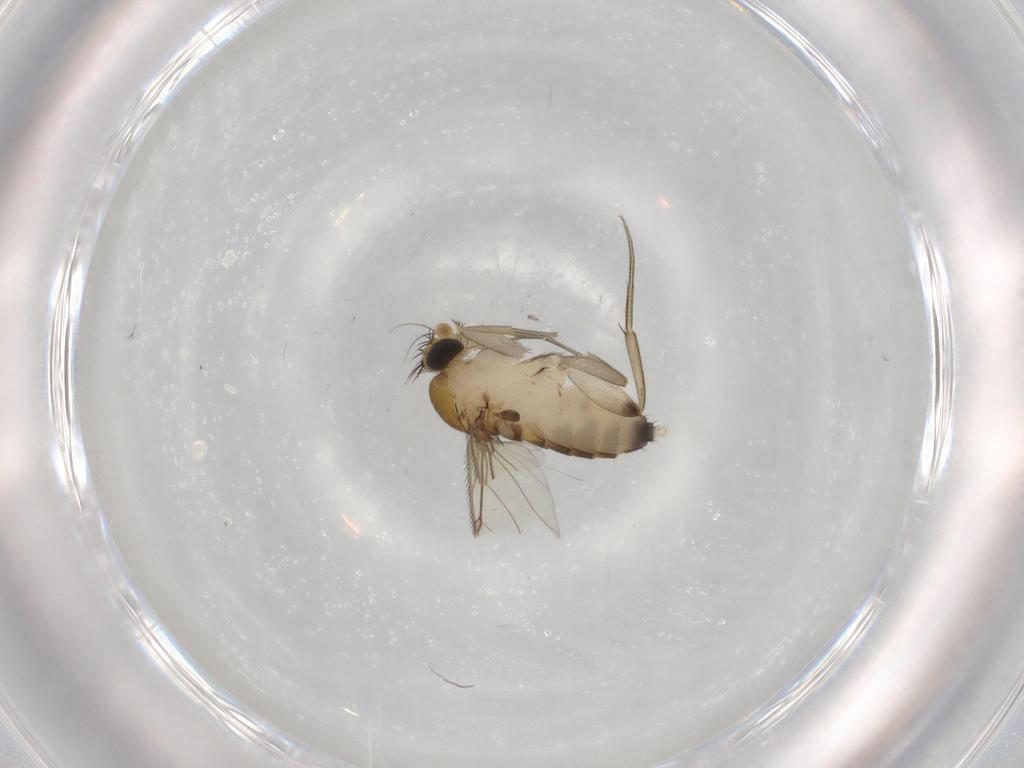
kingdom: Animalia
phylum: Arthropoda
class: Insecta
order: Diptera
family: Phoridae
